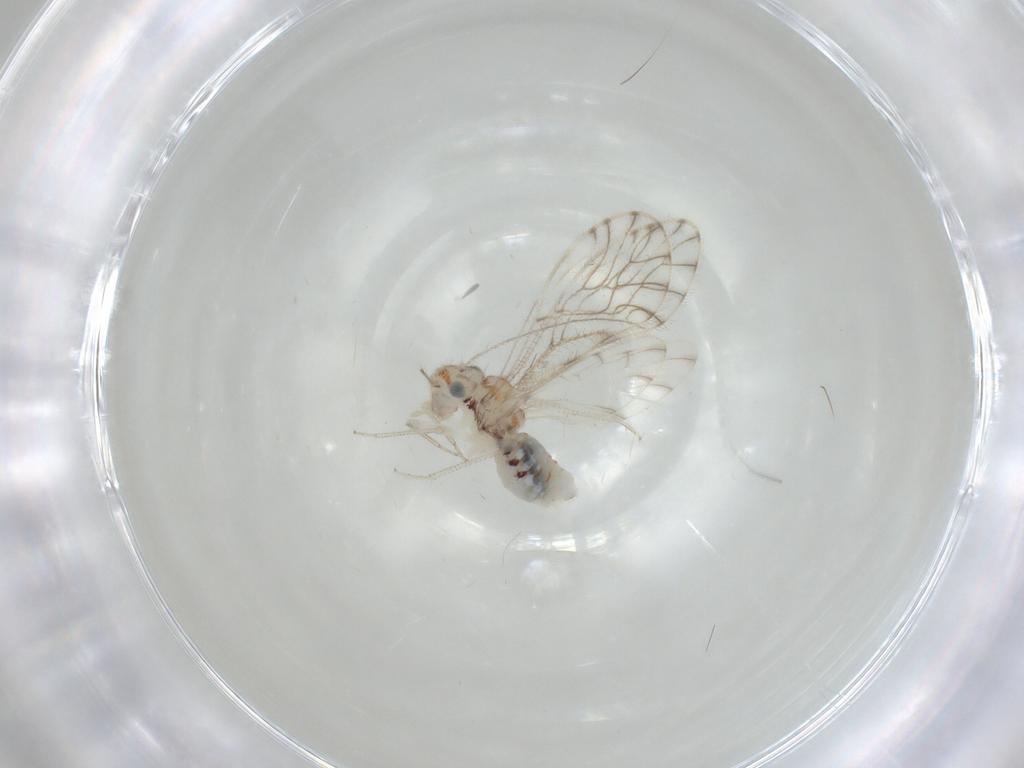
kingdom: Animalia
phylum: Arthropoda
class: Insecta
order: Psocodea
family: Philotarsidae
